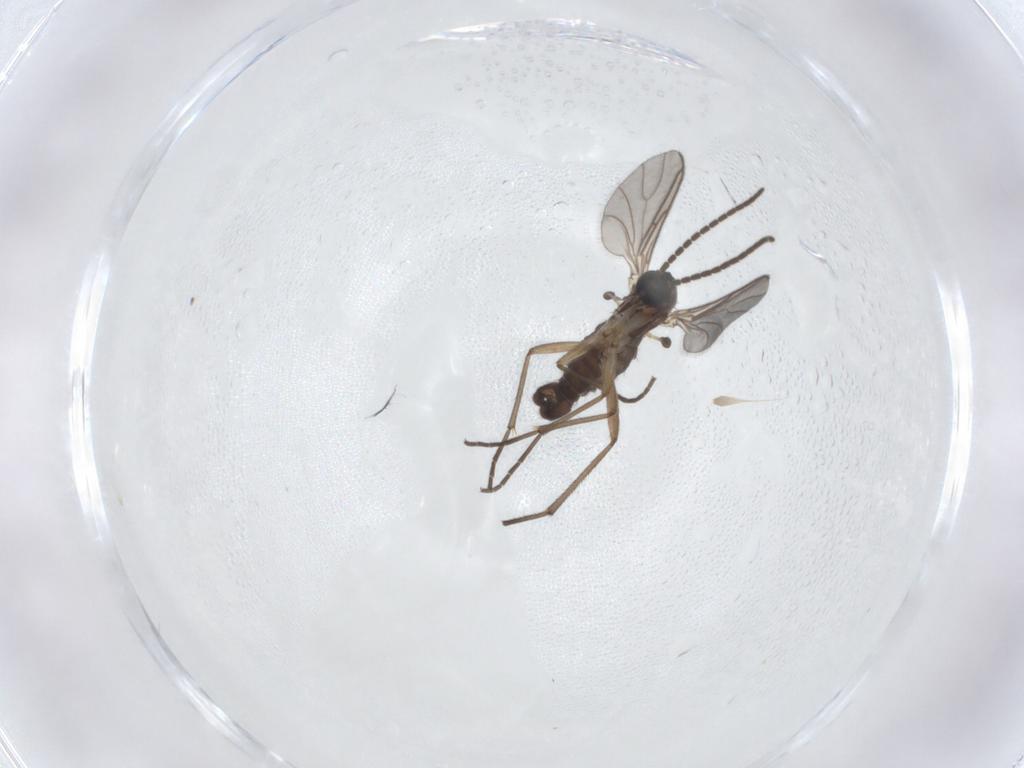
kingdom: Animalia
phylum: Arthropoda
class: Insecta
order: Diptera
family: Sciaridae
